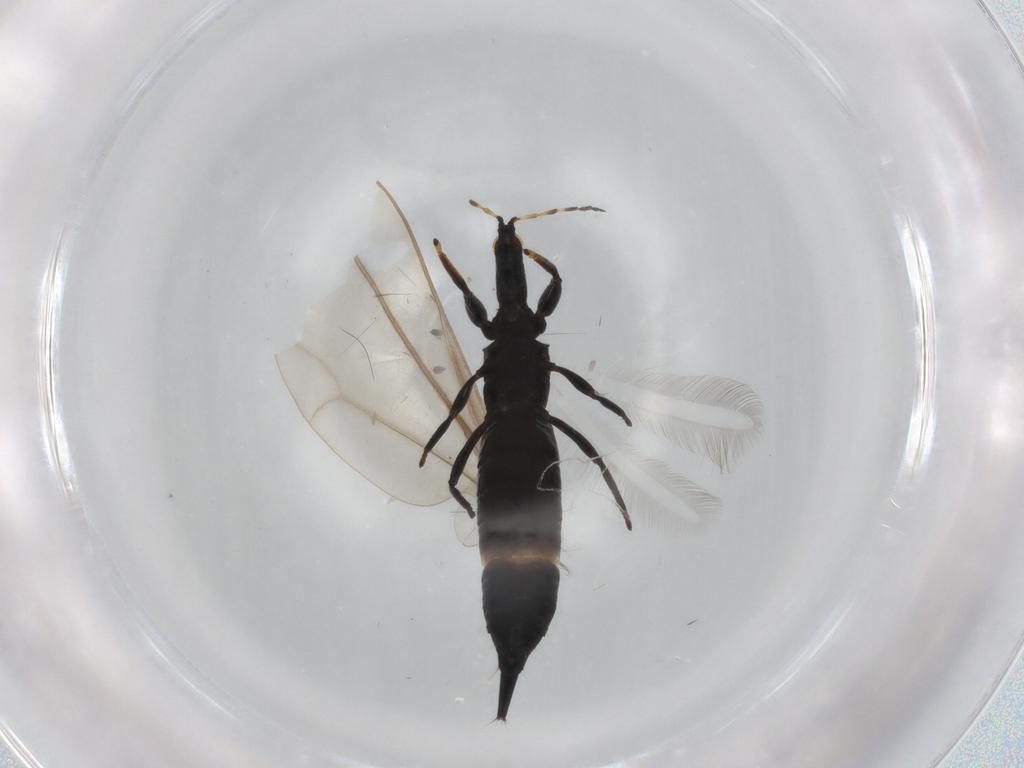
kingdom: Animalia
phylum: Arthropoda
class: Insecta
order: Thysanoptera
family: Phlaeothripidae
